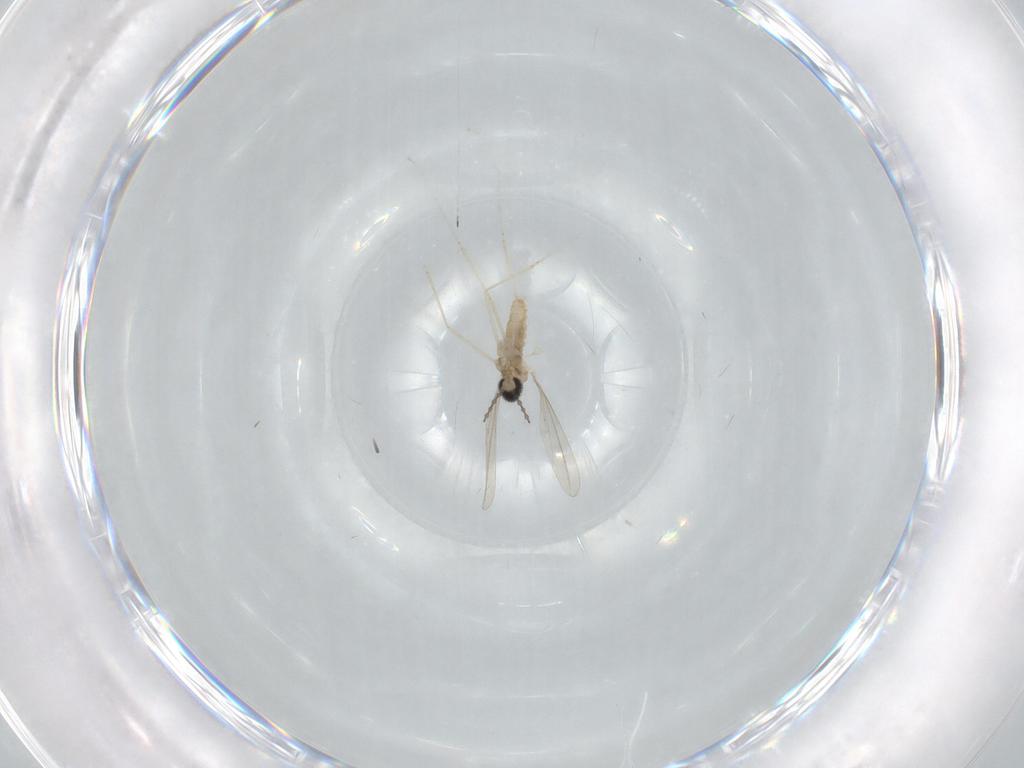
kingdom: Animalia
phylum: Arthropoda
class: Insecta
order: Diptera
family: Cecidomyiidae
